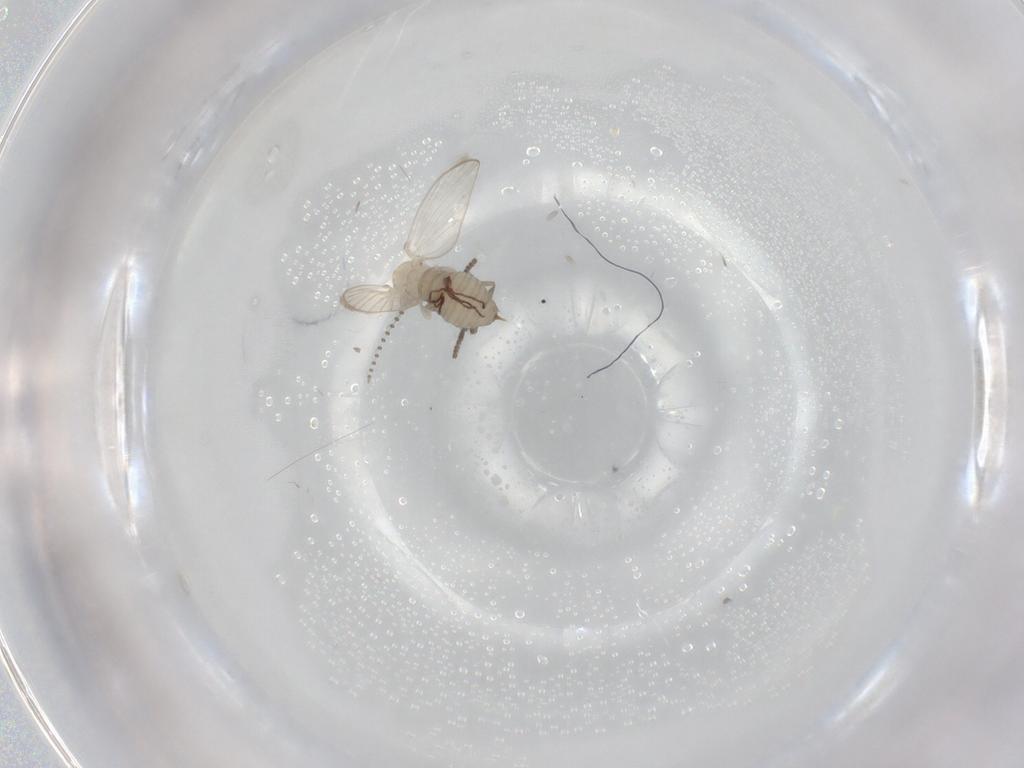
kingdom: Animalia
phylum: Arthropoda
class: Insecta
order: Diptera
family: Psychodidae
